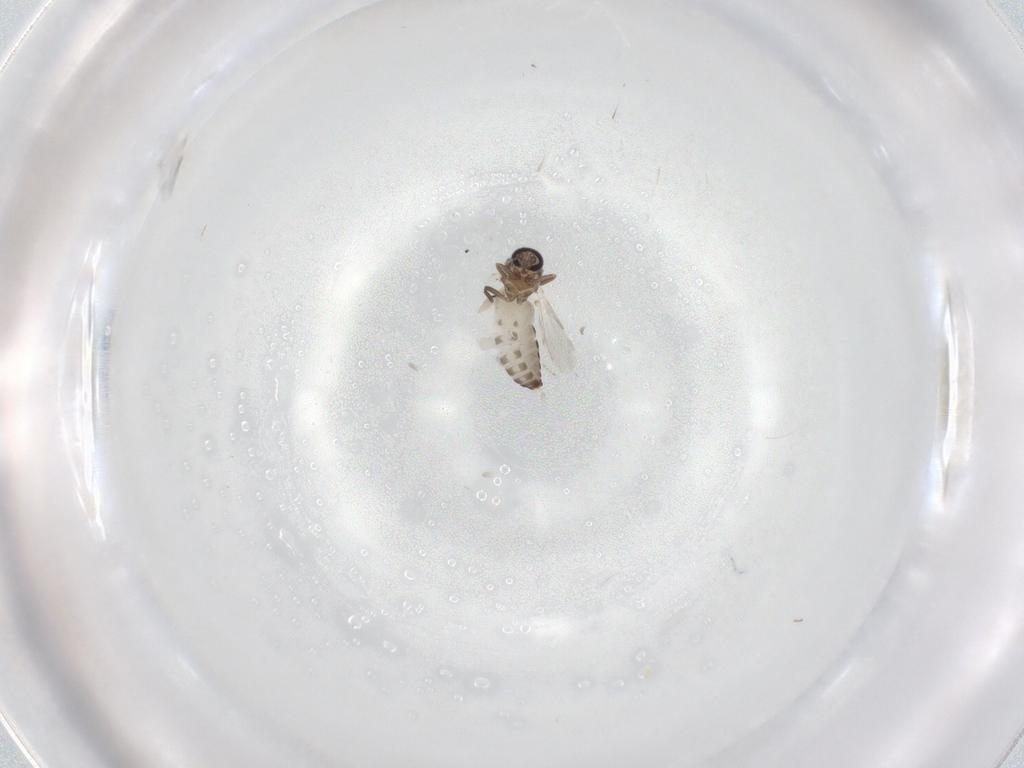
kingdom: Animalia
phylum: Arthropoda
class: Insecta
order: Diptera
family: Ceratopogonidae
